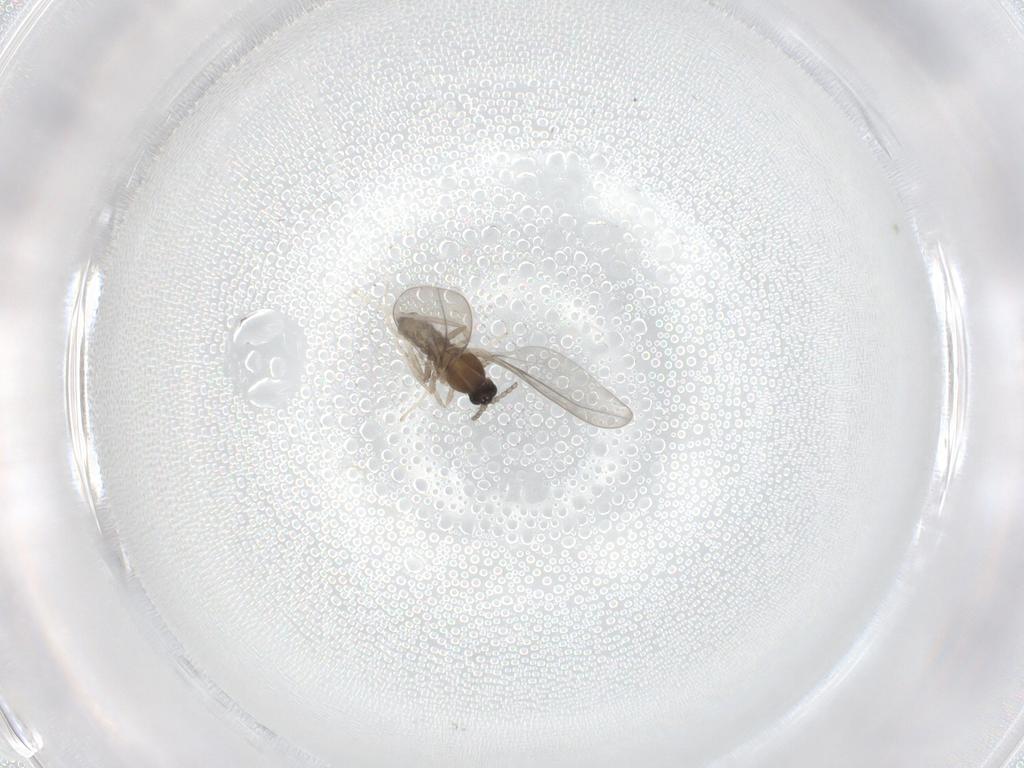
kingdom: Animalia
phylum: Arthropoda
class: Insecta
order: Diptera
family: Cecidomyiidae
